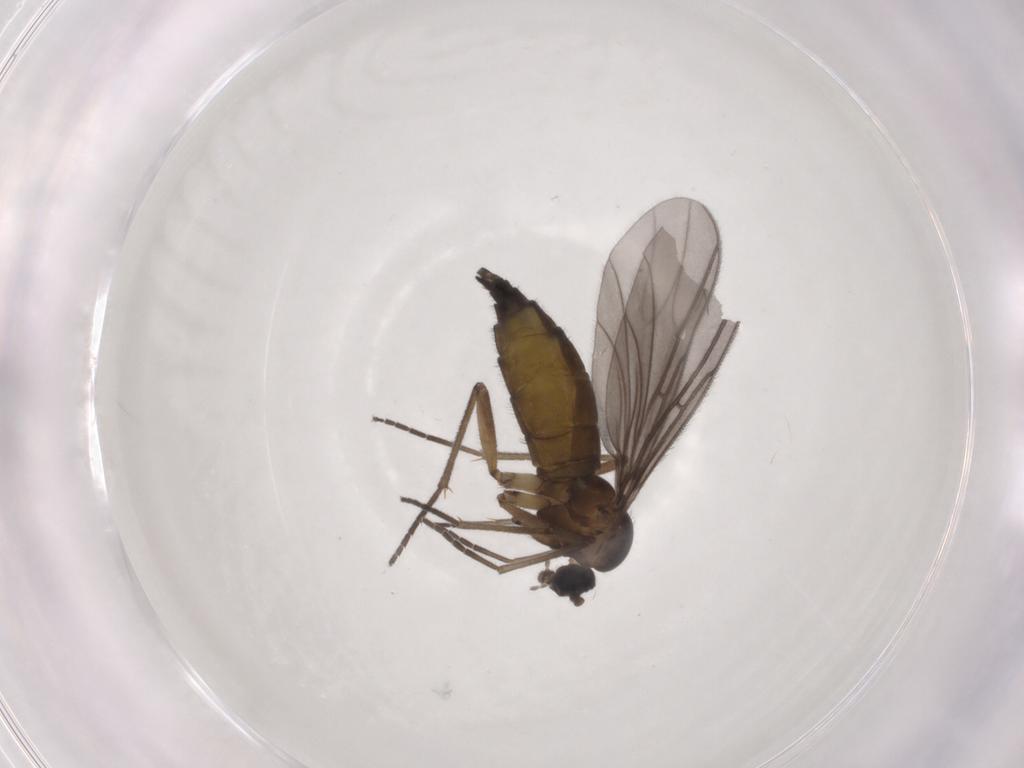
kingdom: Animalia
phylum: Arthropoda
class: Insecta
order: Diptera
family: Sciaridae
